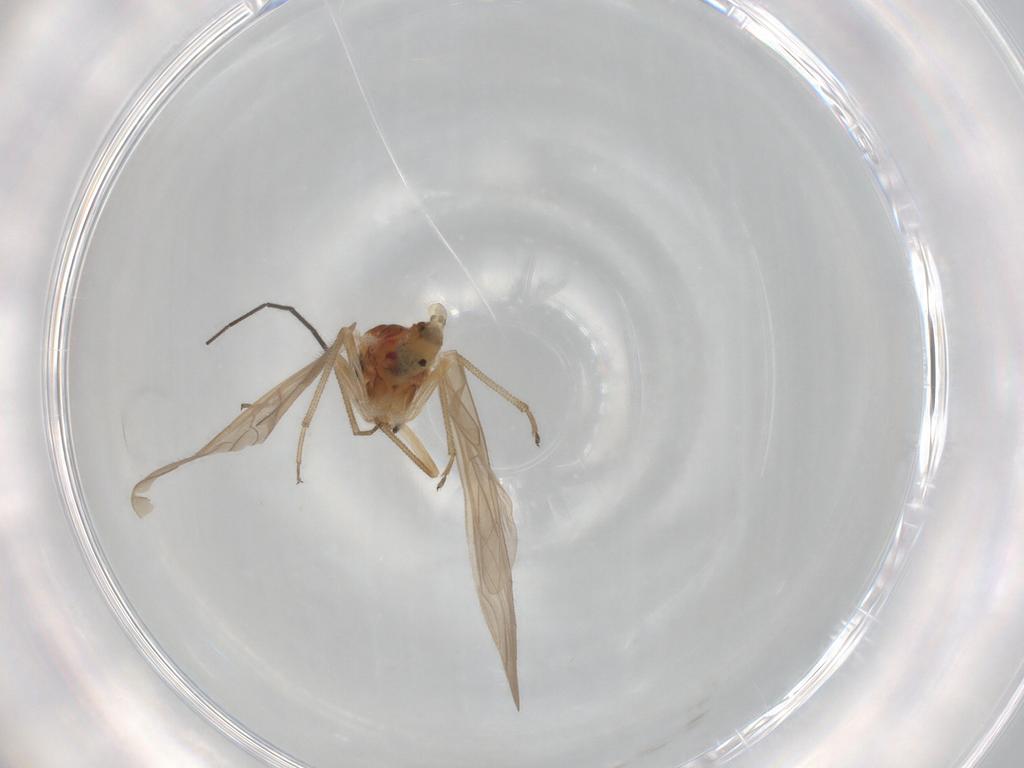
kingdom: Animalia
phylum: Arthropoda
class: Insecta
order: Psocodea
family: Caeciliusidae
